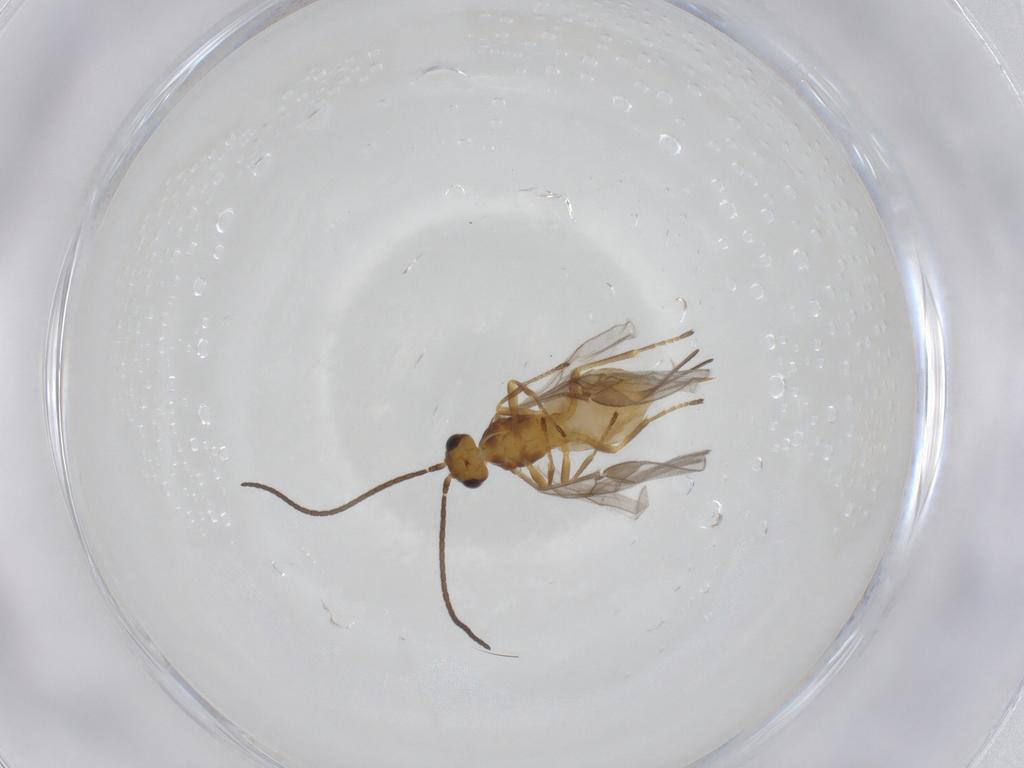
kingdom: Animalia
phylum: Arthropoda
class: Insecta
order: Hymenoptera
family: Braconidae
